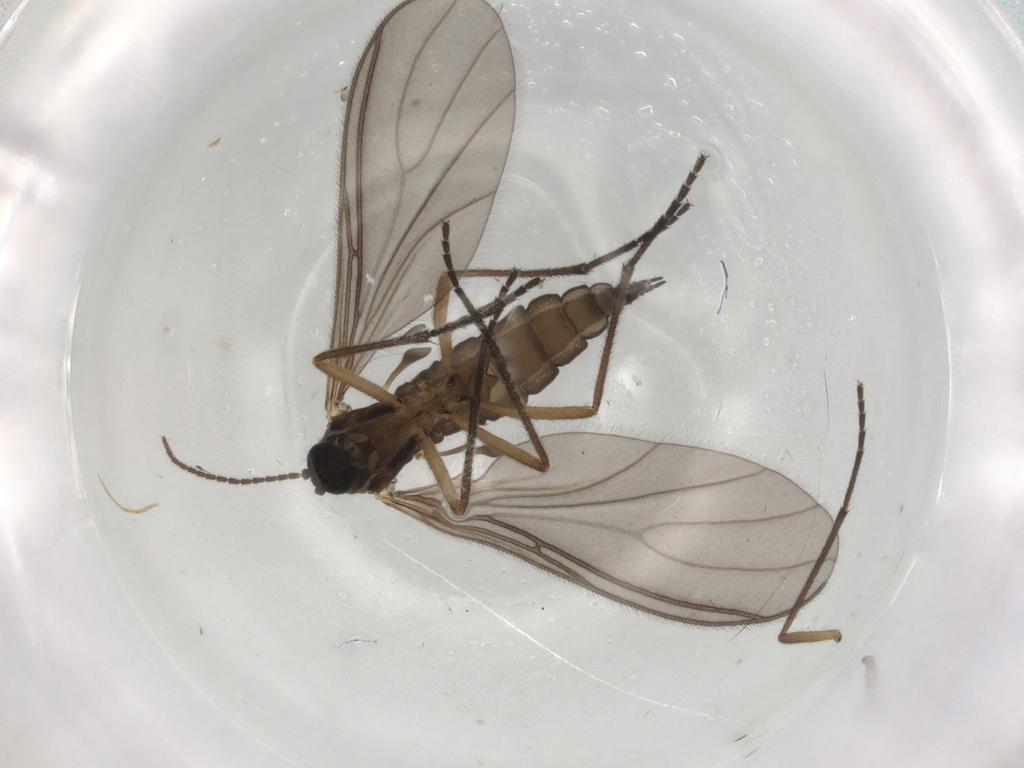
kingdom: Animalia
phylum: Arthropoda
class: Insecta
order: Diptera
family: Sciaridae
